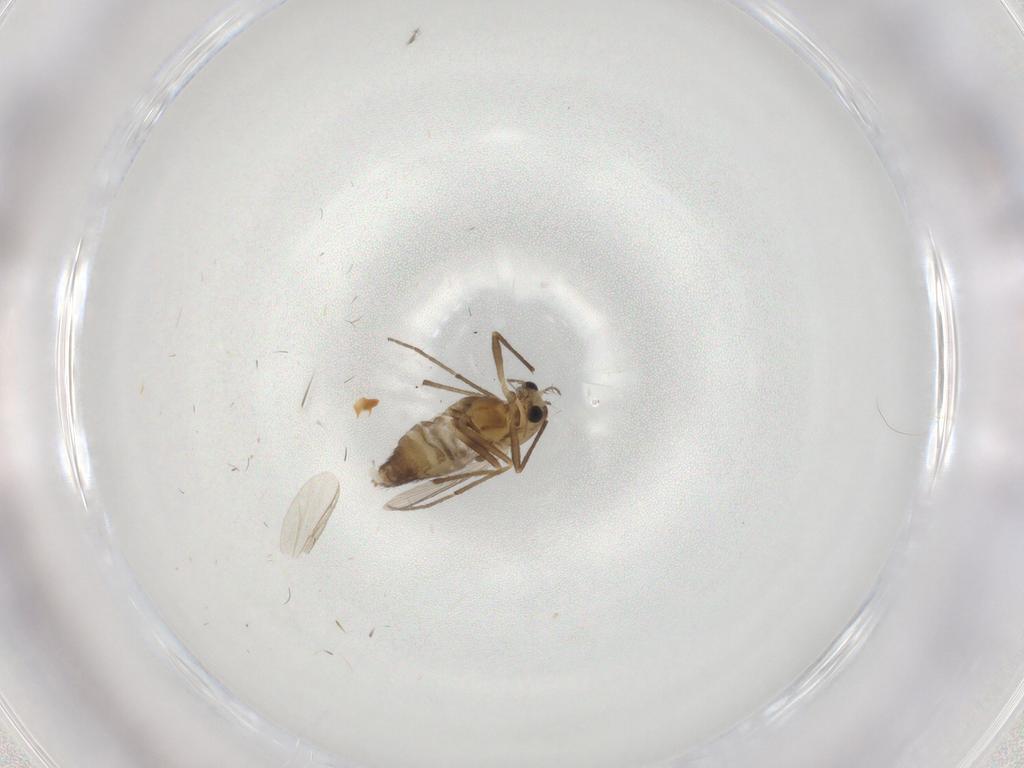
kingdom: Animalia
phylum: Arthropoda
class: Insecta
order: Diptera
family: Chironomidae
